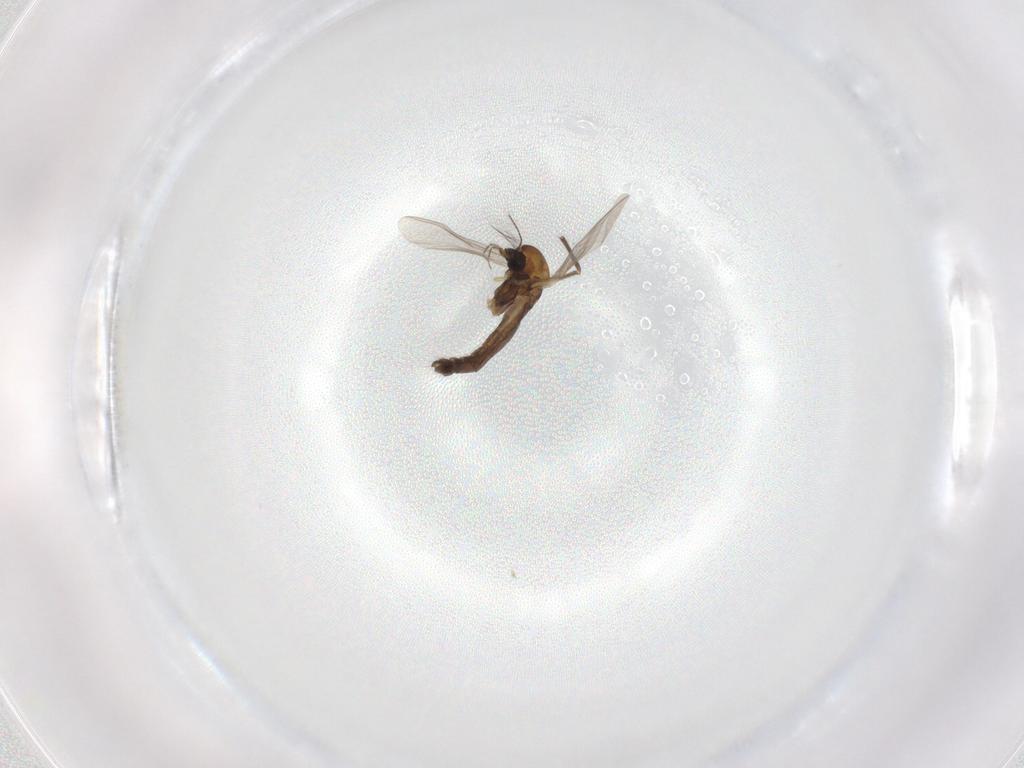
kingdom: Animalia
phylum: Arthropoda
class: Insecta
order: Diptera
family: Chironomidae
